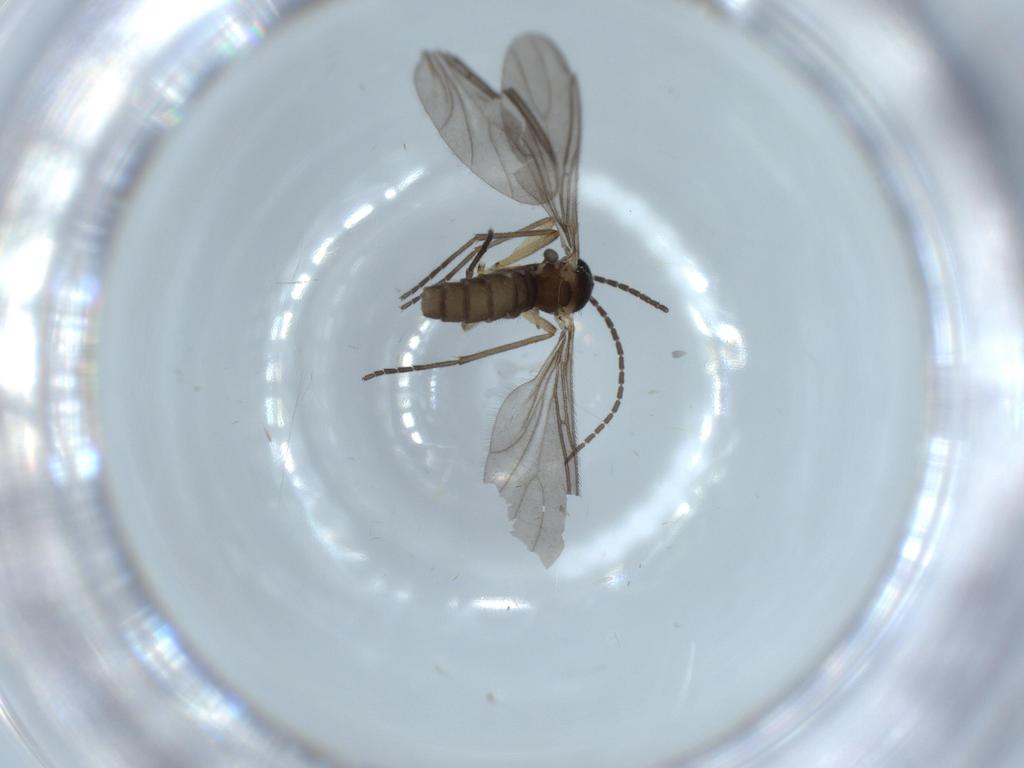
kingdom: Animalia
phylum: Arthropoda
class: Insecta
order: Diptera
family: Sciaridae
